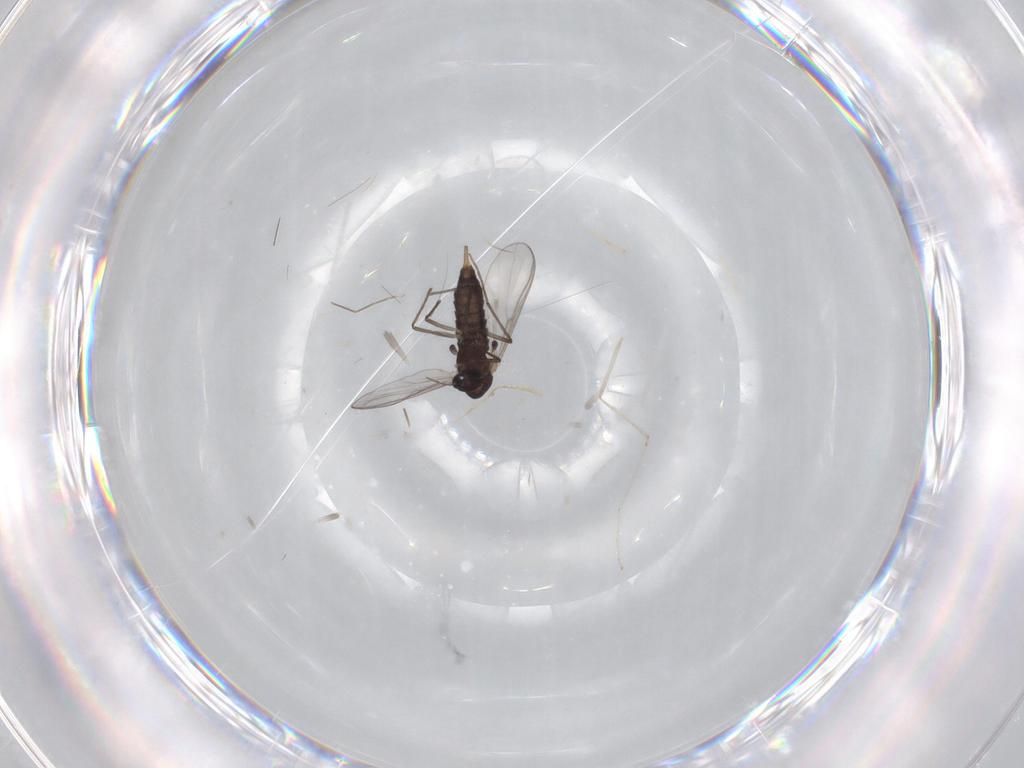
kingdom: Animalia
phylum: Arthropoda
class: Insecta
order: Diptera
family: Chironomidae
